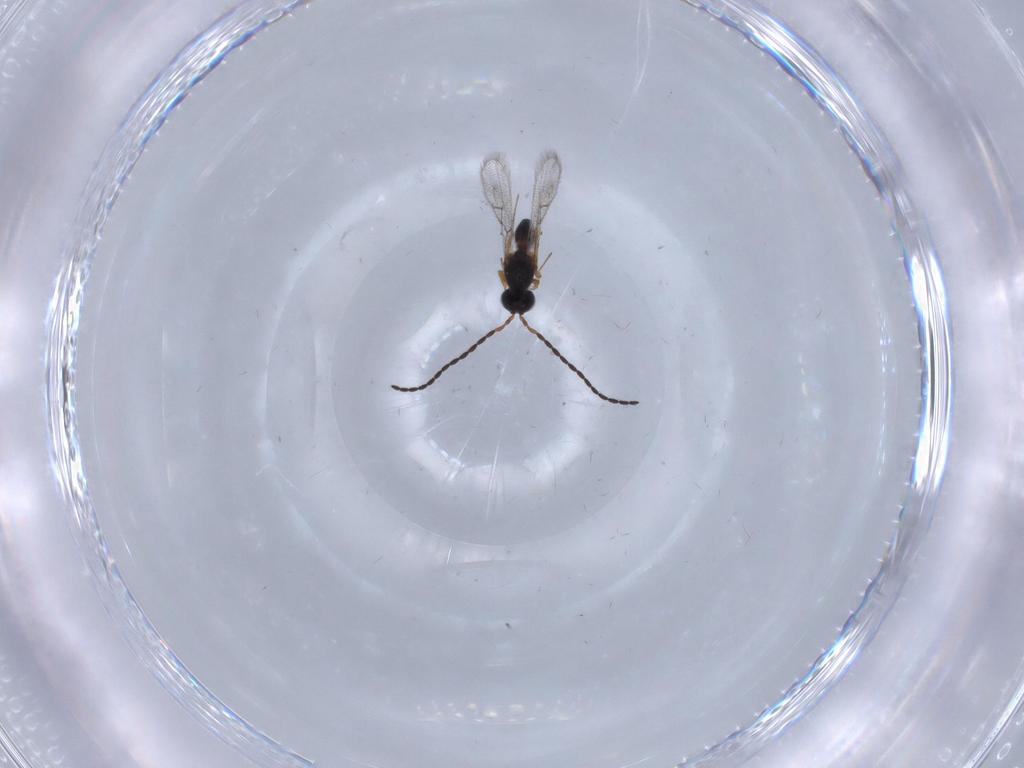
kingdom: Animalia
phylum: Arthropoda
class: Insecta
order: Hymenoptera
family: Figitidae
